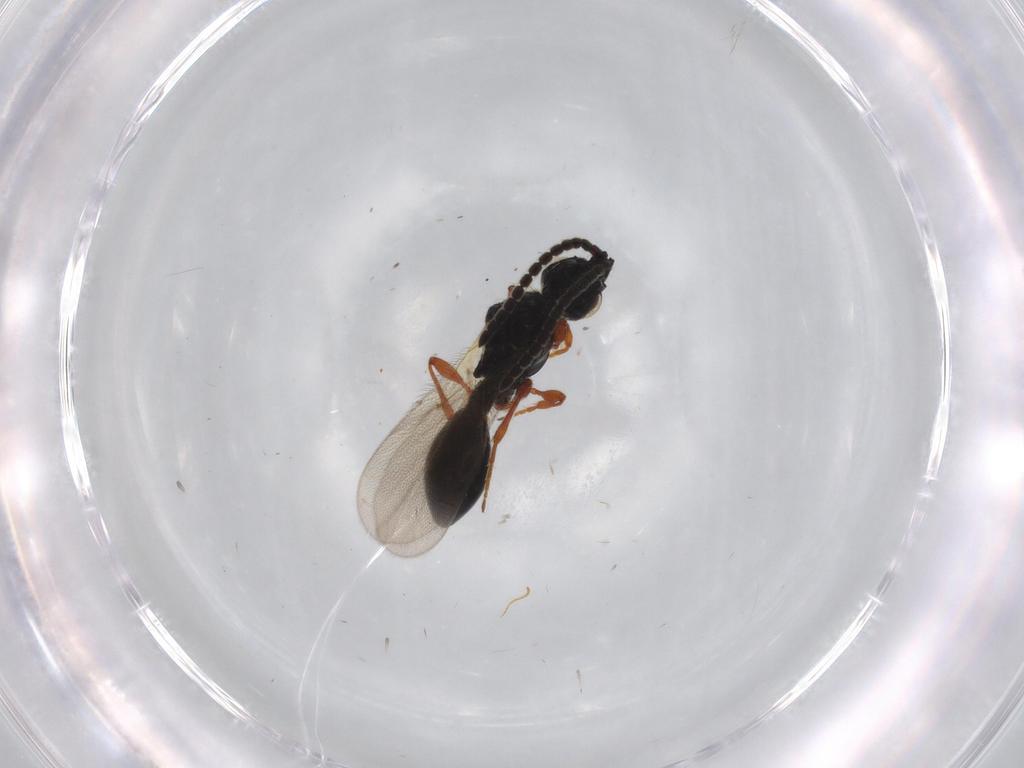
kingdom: Animalia
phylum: Arthropoda
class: Insecta
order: Hymenoptera
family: Diapriidae
